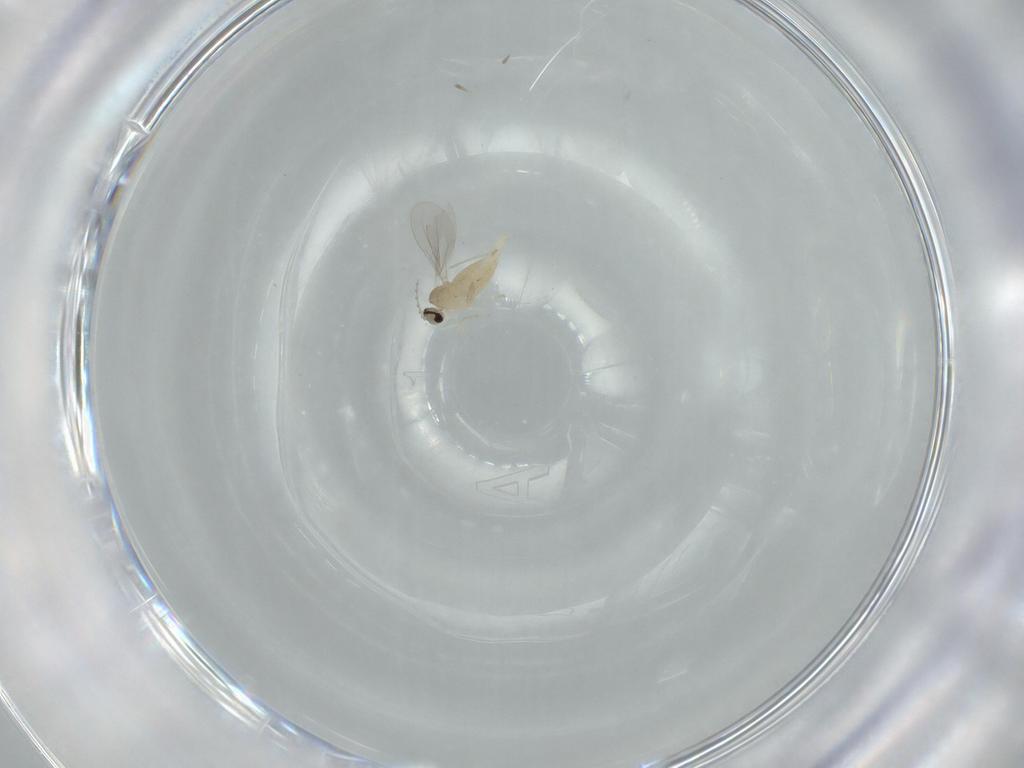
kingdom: Animalia
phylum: Arthropoda
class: Insecta
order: Diptera
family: Cecidomyiidae
